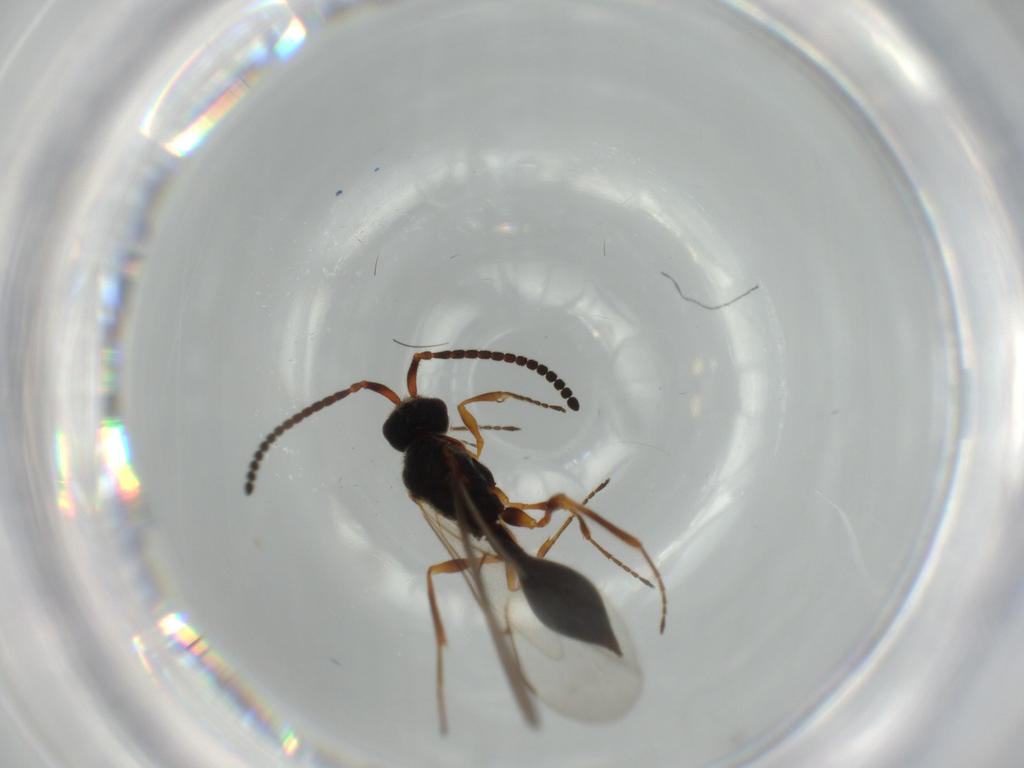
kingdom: Animalia
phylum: Arthropoda
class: Insecta
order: Hymenoptera
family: Diapriidae
